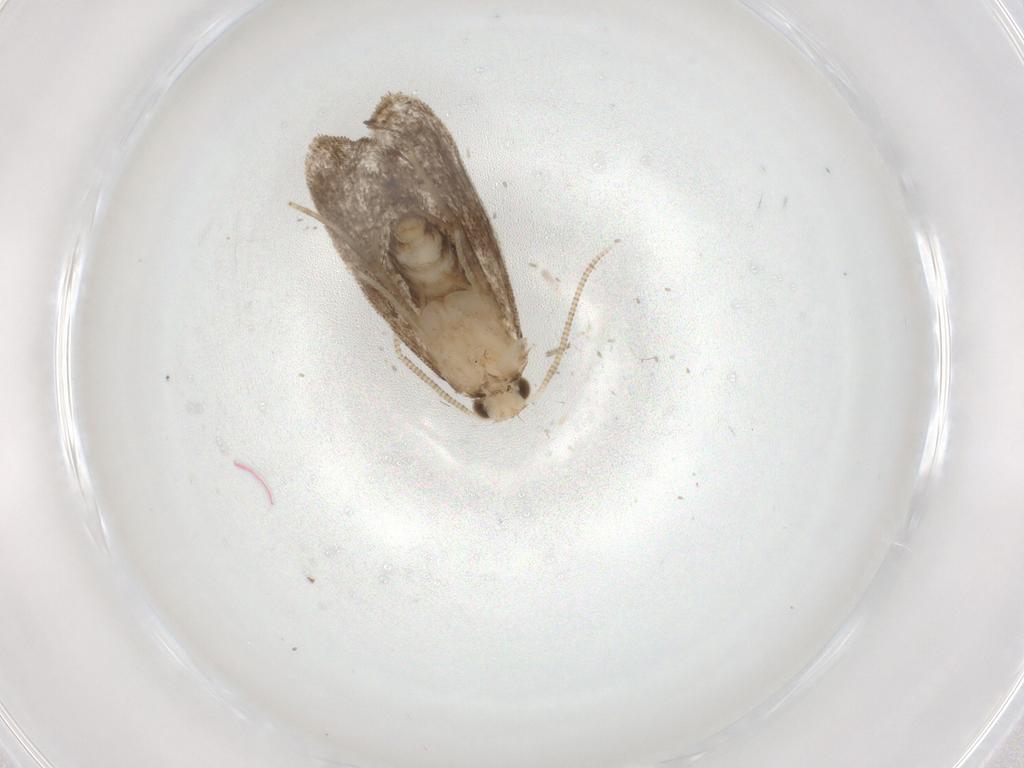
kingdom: Animalia
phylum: Arthropoda
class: Insecta
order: Lepidoptera
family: Dryadaulidae
